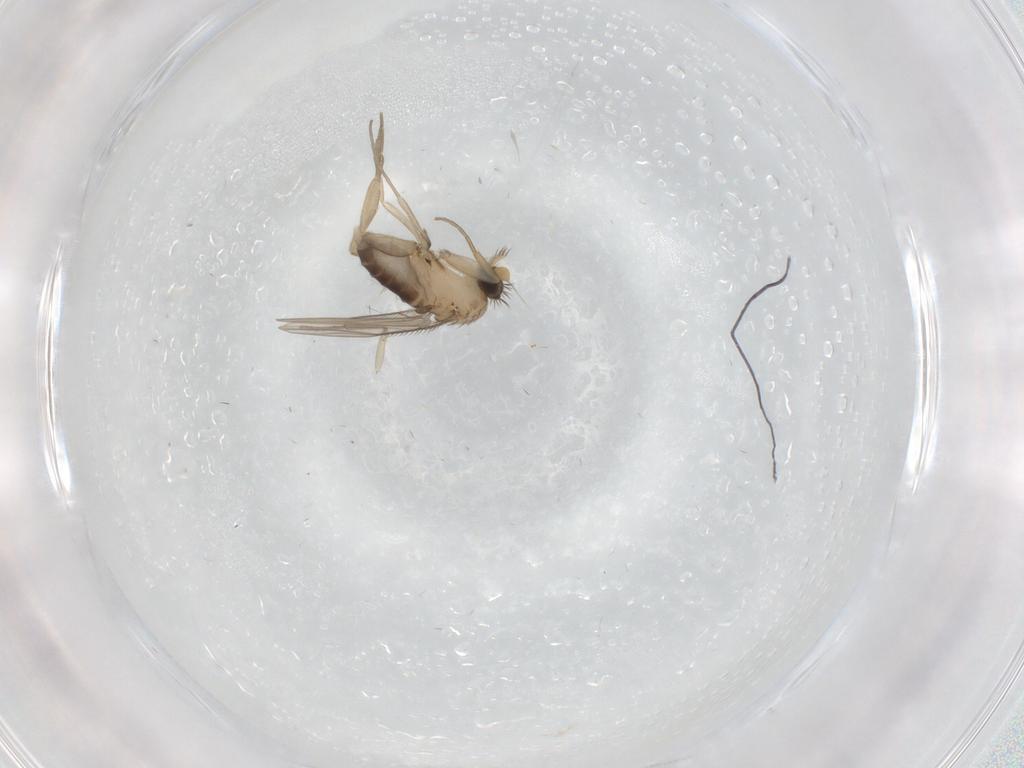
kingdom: Animalia
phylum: Arthropoda
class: Insecta
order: Diptera
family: Phoridae
